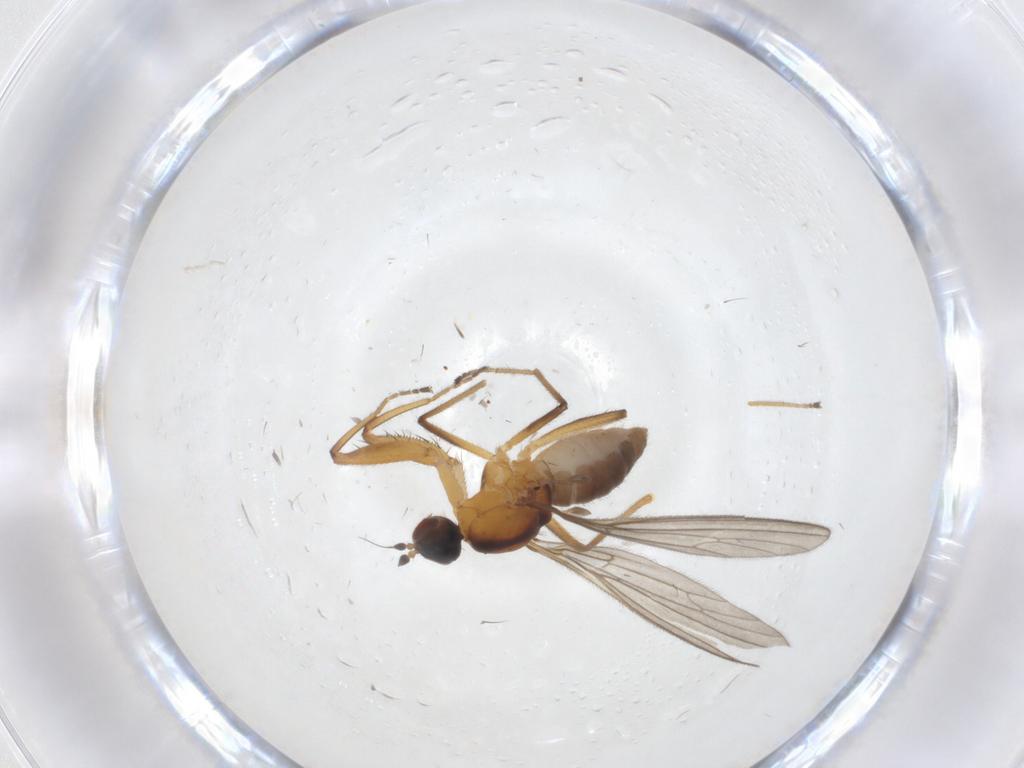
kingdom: Animalia
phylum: Arthropoda
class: Insecta
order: Diptera
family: Empididae
